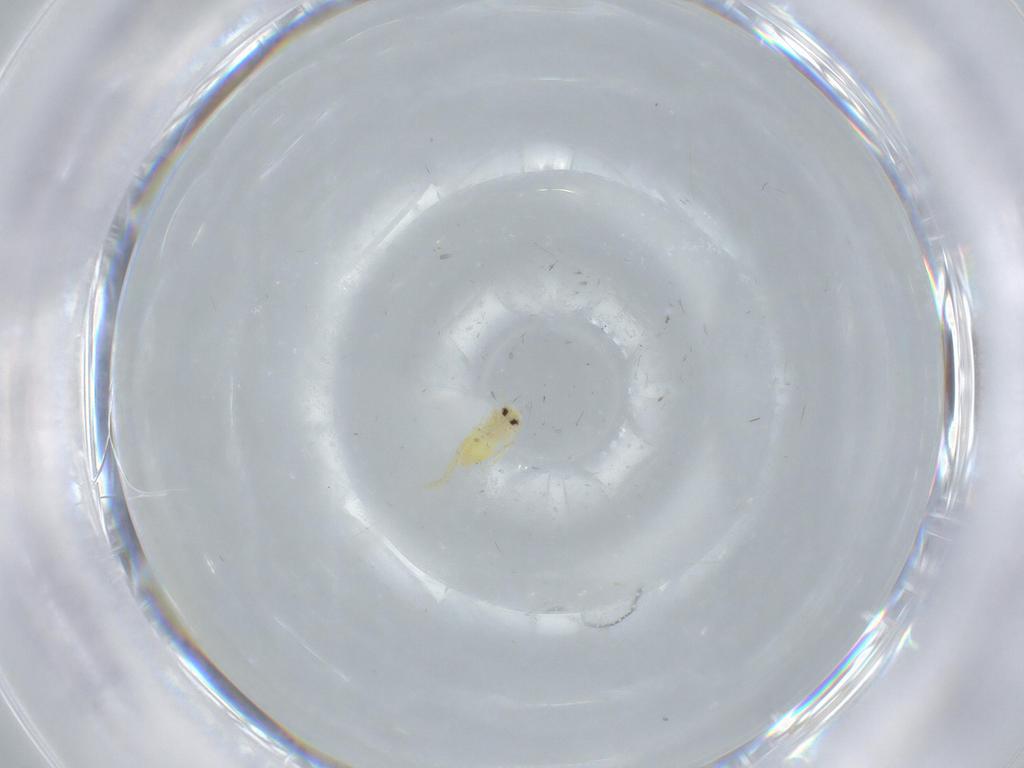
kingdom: Animalia
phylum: Arthropoda
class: Insecta
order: Hemiptera
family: Aleyrodidae
